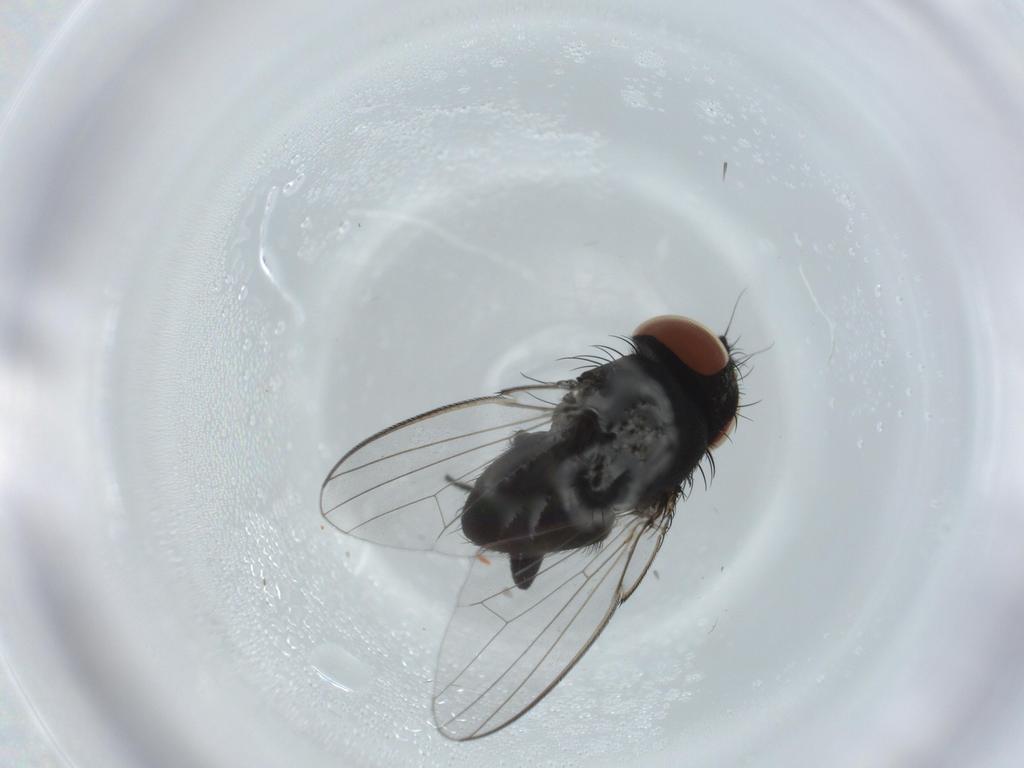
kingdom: Animalia
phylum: Arthropoda
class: Insecta
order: Diptera
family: Milichiidae
